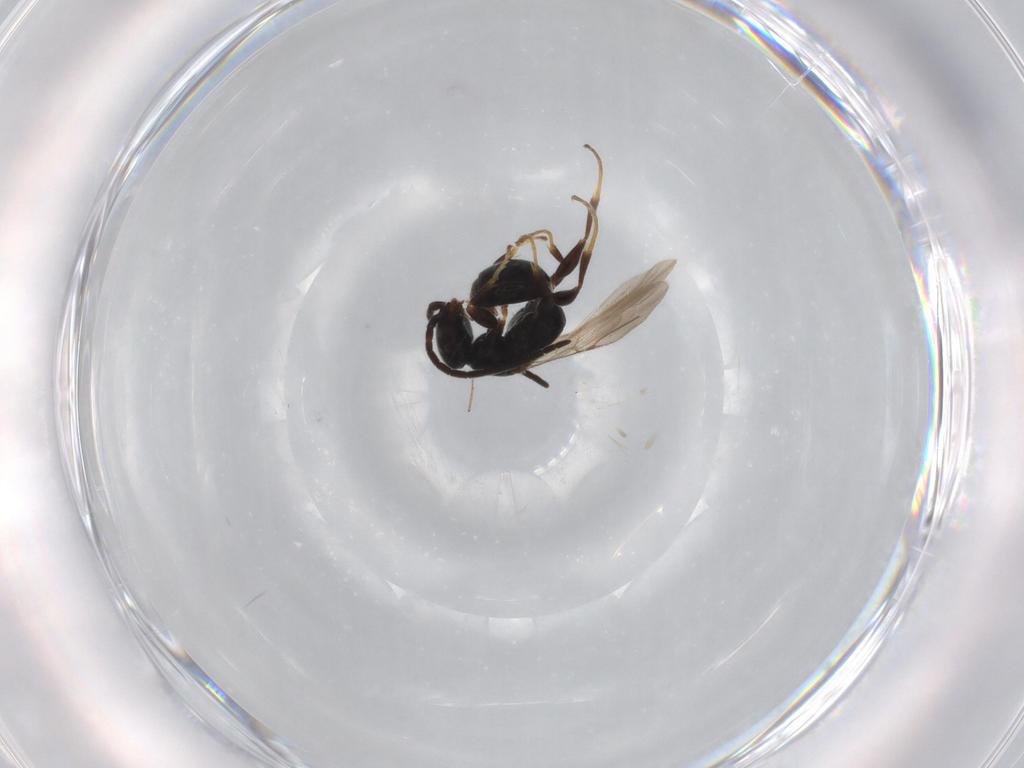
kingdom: Animalia
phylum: Arthropoda
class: Insecta
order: Hymenoptera
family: Bethylidae
